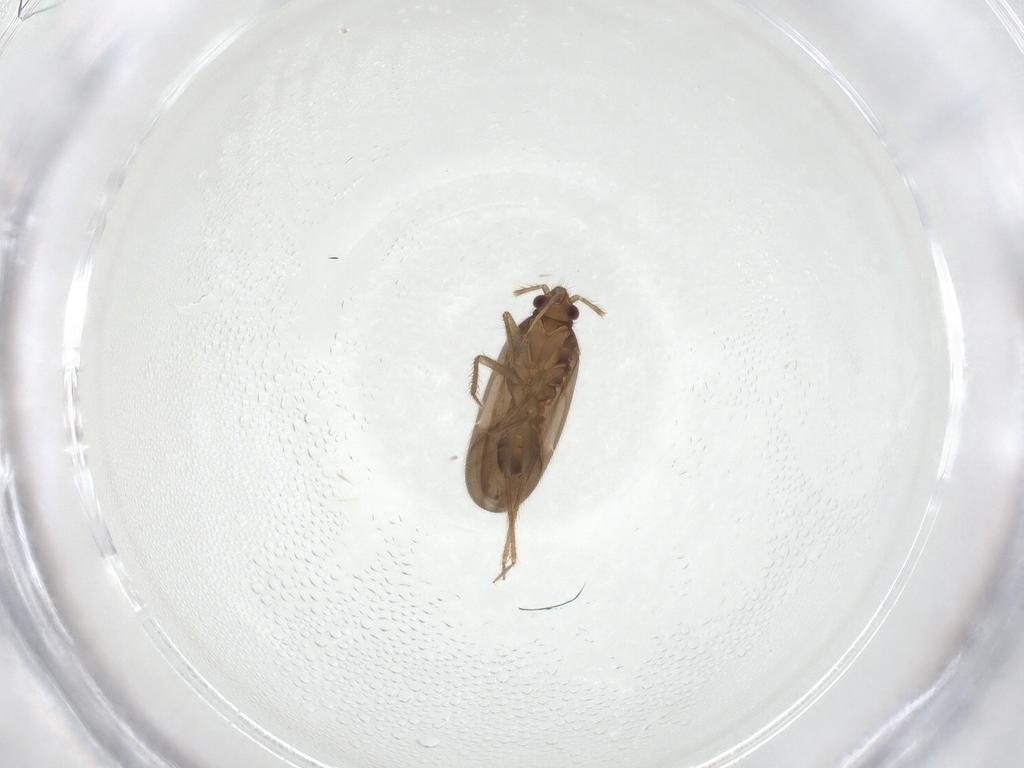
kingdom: Animalia
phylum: Arthropoda
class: Insecta
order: Hemiptera
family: Ceratocombidae
